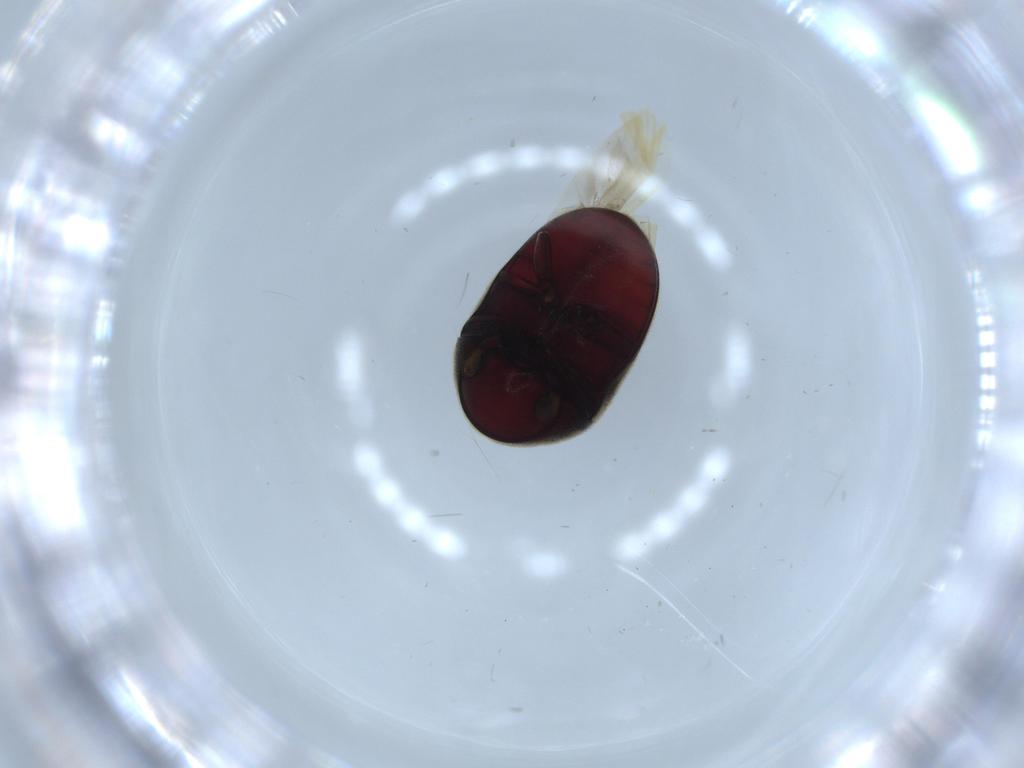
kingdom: Animalia
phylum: Arthropoda
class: Insecta
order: Coleoptera
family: Chrysomelidae
